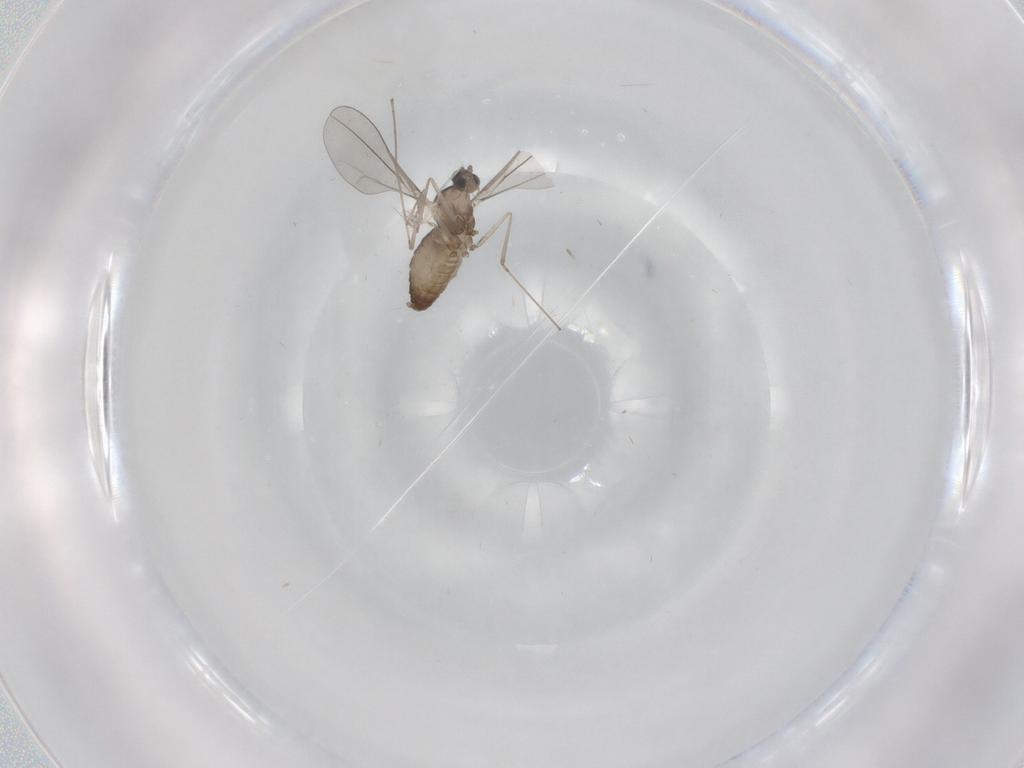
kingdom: Animalia
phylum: Arthropoda
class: Insecta
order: Diptera
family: Cecidomyiidae
